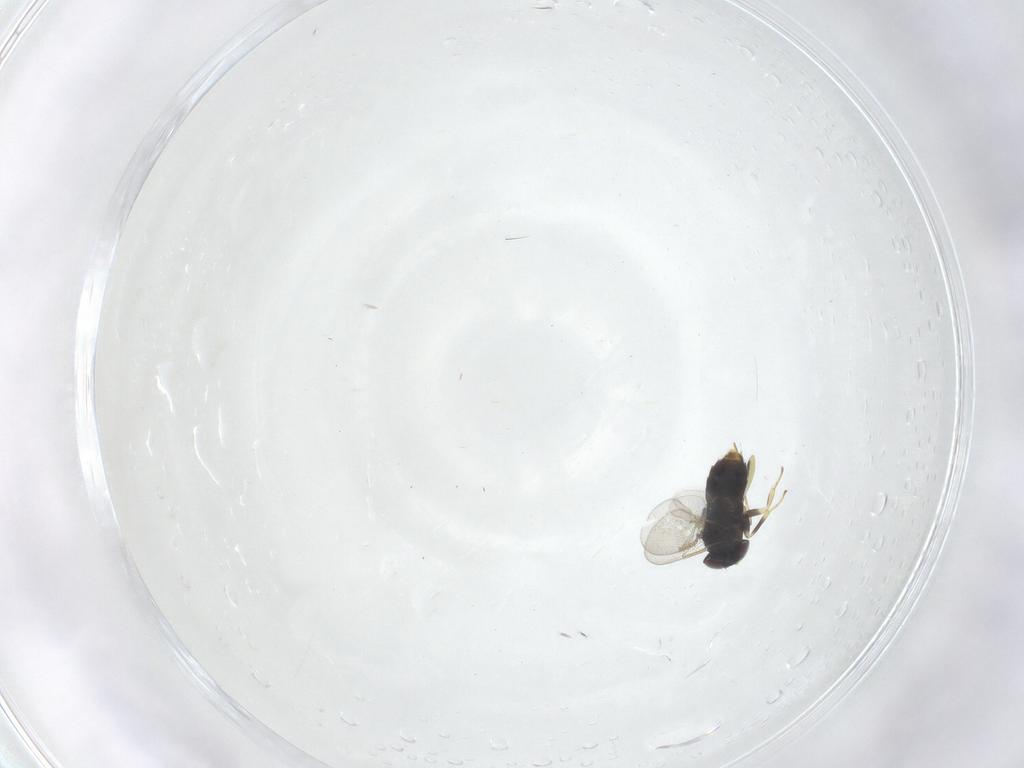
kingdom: Animalia
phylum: Arthropoda
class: Insecta
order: Hymenoptera
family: Aphelinidae
